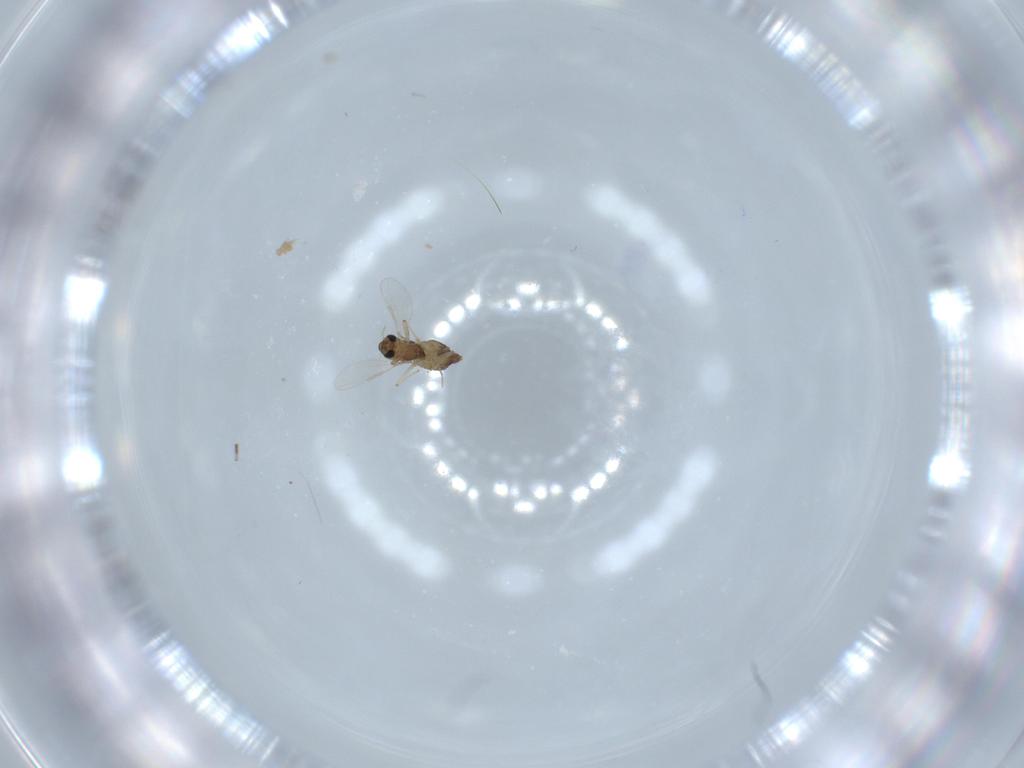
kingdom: Animalia
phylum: Arthropoda
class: Insecta
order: Diptera
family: Chironomidae
